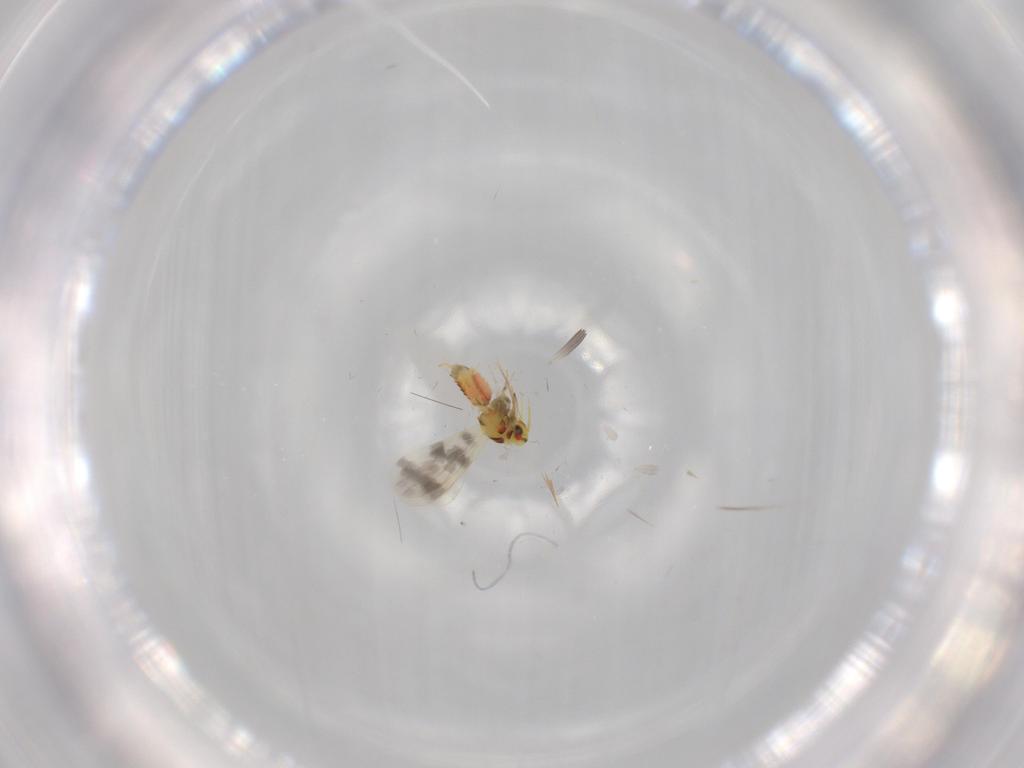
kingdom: Animalia
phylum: Arthropoda
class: Insecta
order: Hemiptera
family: Aleyrodidae
